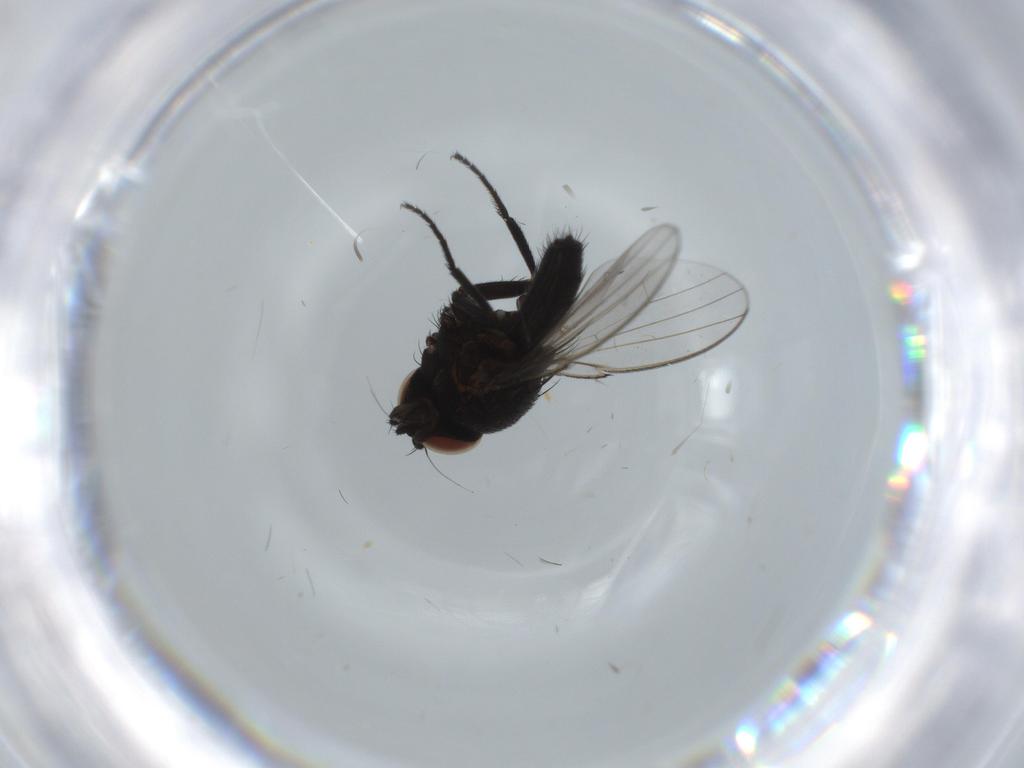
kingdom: Animalia
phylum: Arthropoda
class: Insecta
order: Diptera
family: Milichiidae
